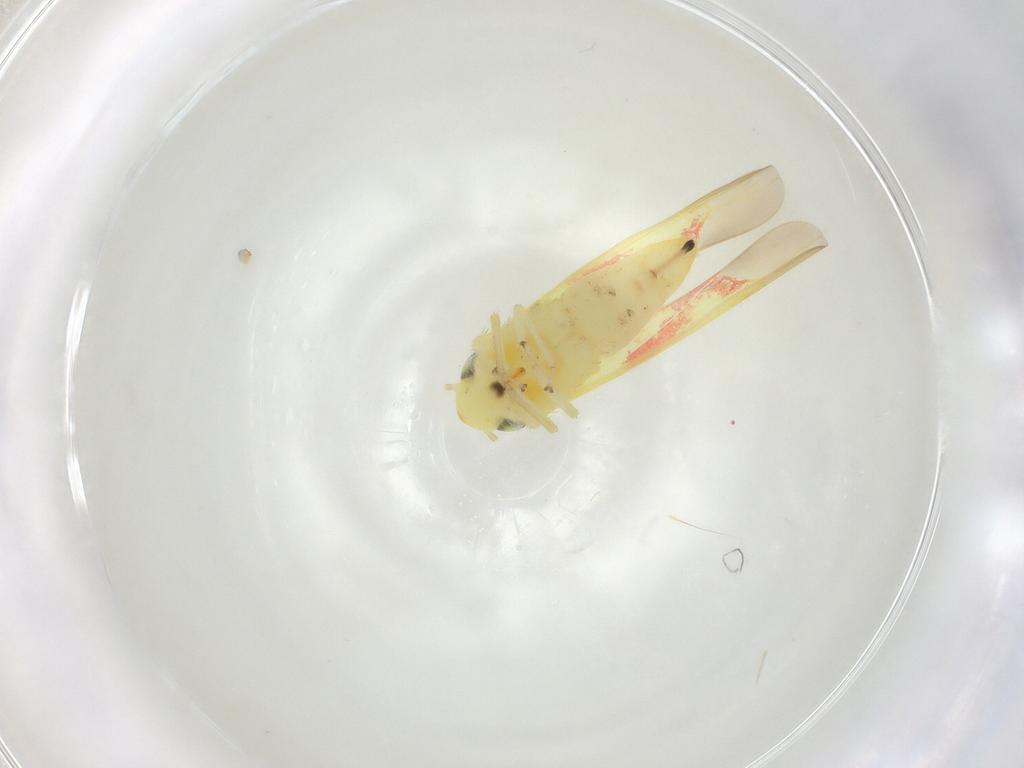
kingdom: Animalia
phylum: Arthropoda
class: Insecta
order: Hemiptera
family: Cicadellidae
